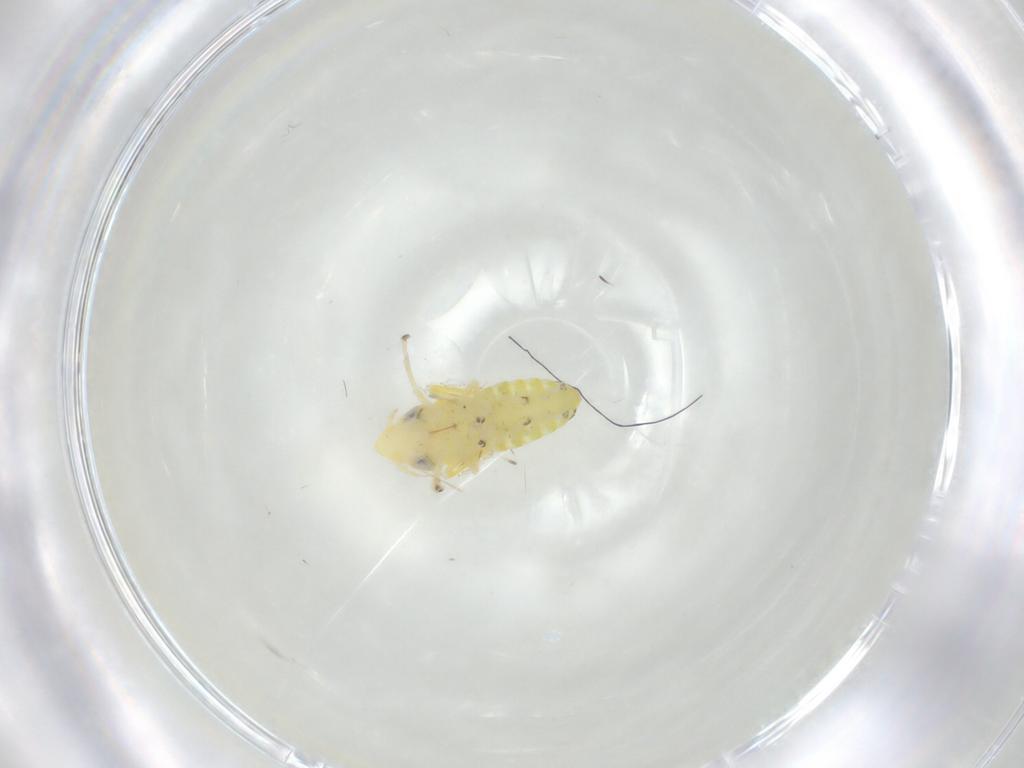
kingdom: Animalia
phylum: Arthropoda
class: Insecta
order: Hemiptera
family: Cicadellidae
